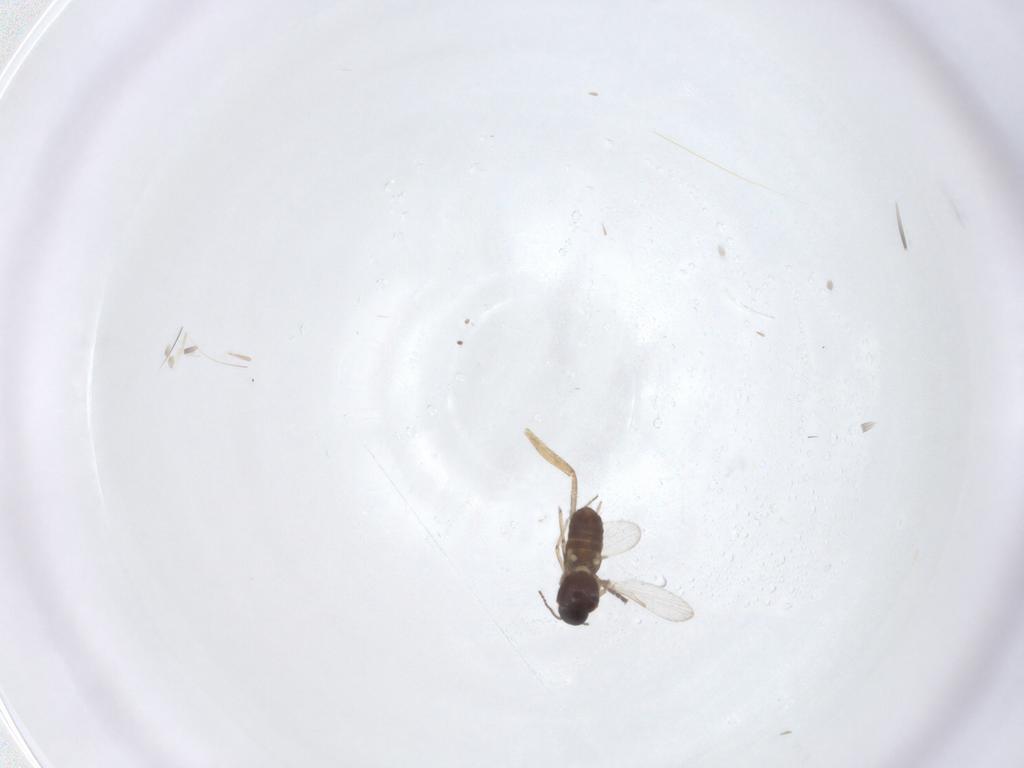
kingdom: Animalia
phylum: Arthropoda
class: Insecta
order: Diptera
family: Ceratopogonidae
